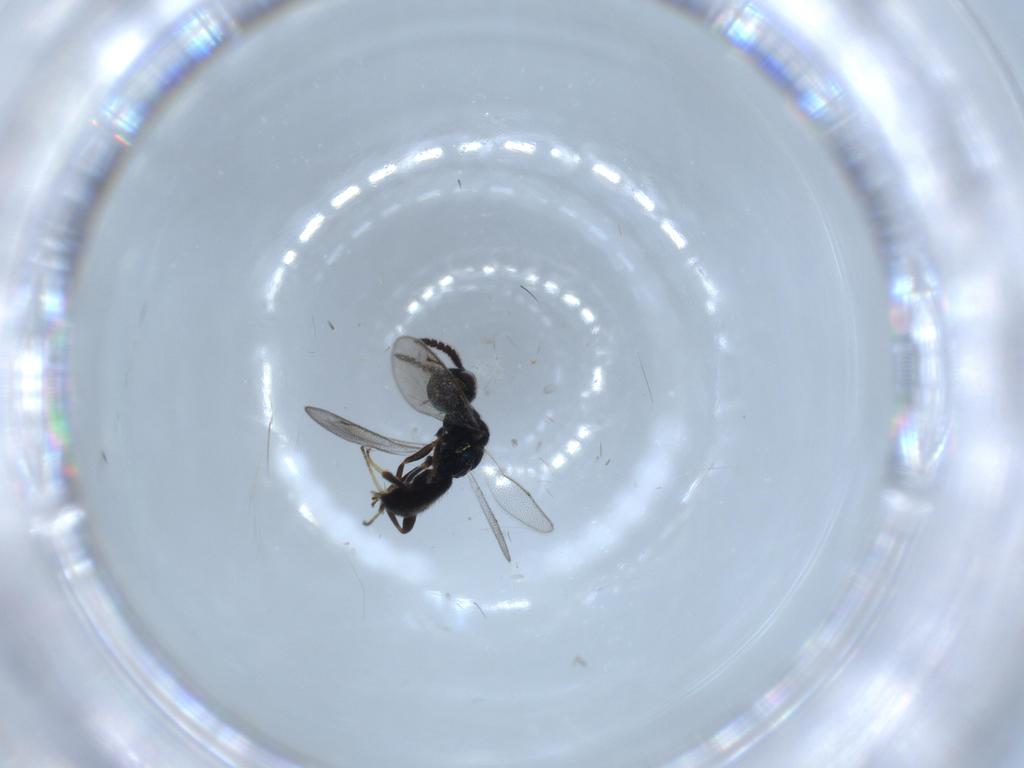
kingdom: Animalia
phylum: Arthropoda
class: Insecta
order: Hymenoptera
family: Cleonyminae
